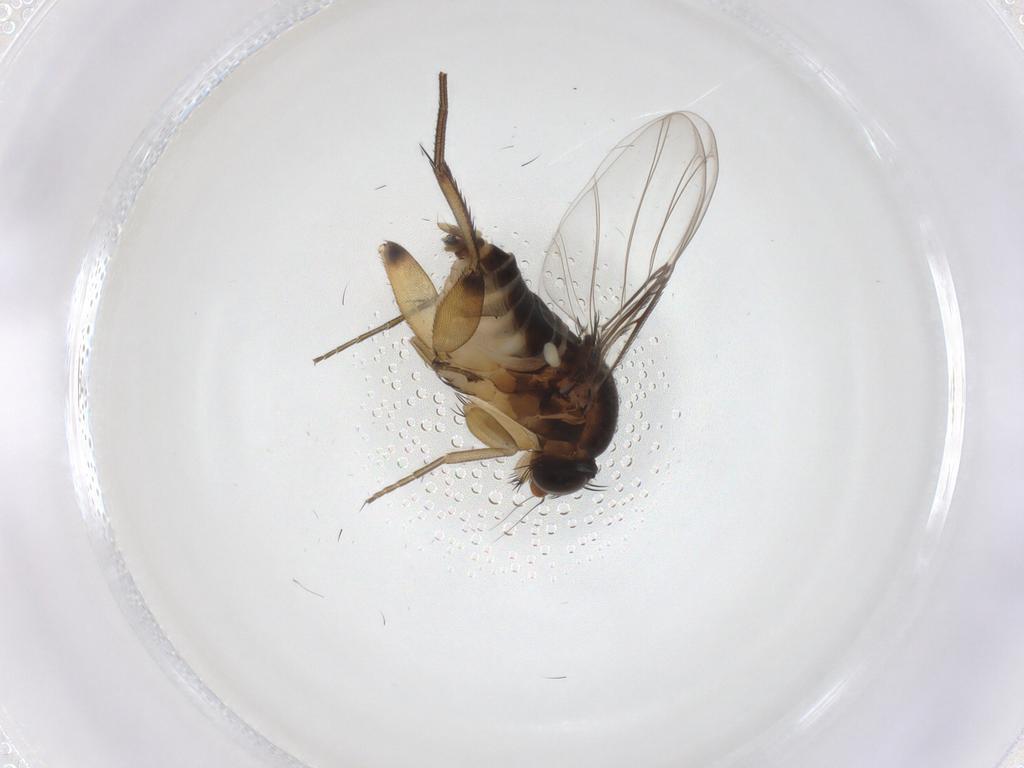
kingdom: Animalia
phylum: Arthropoda
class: Insecta
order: Diptera
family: Phoridae
